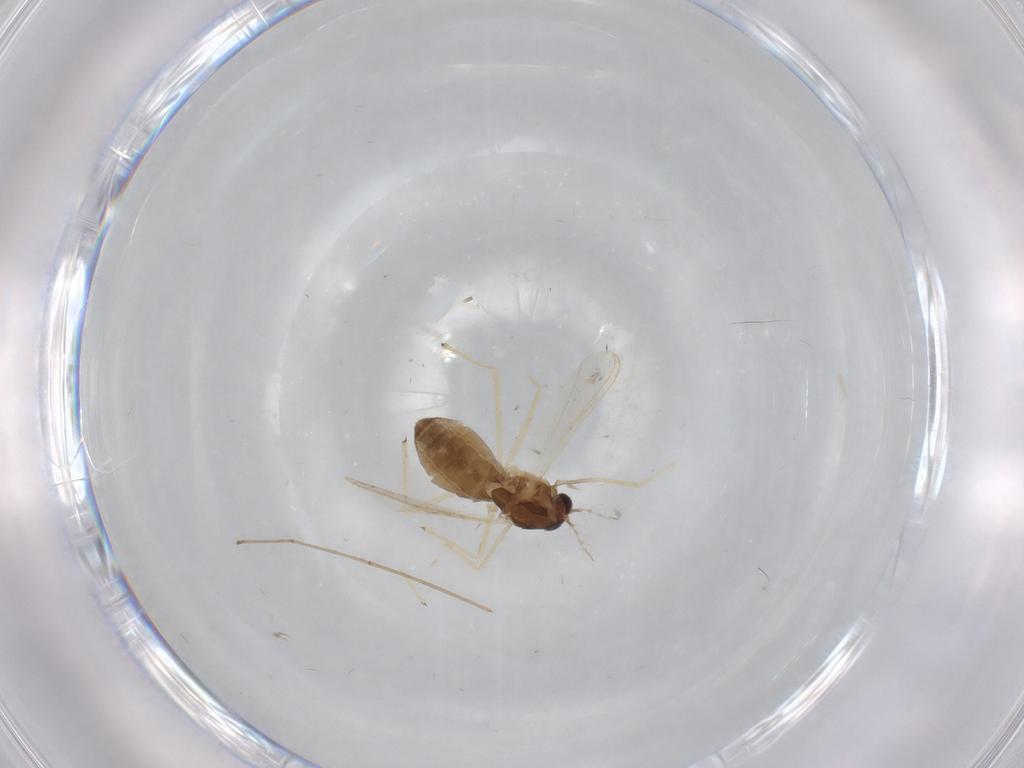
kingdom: Animalia
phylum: Arthropoda
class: Insecta
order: Diptera
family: Chironomidae
